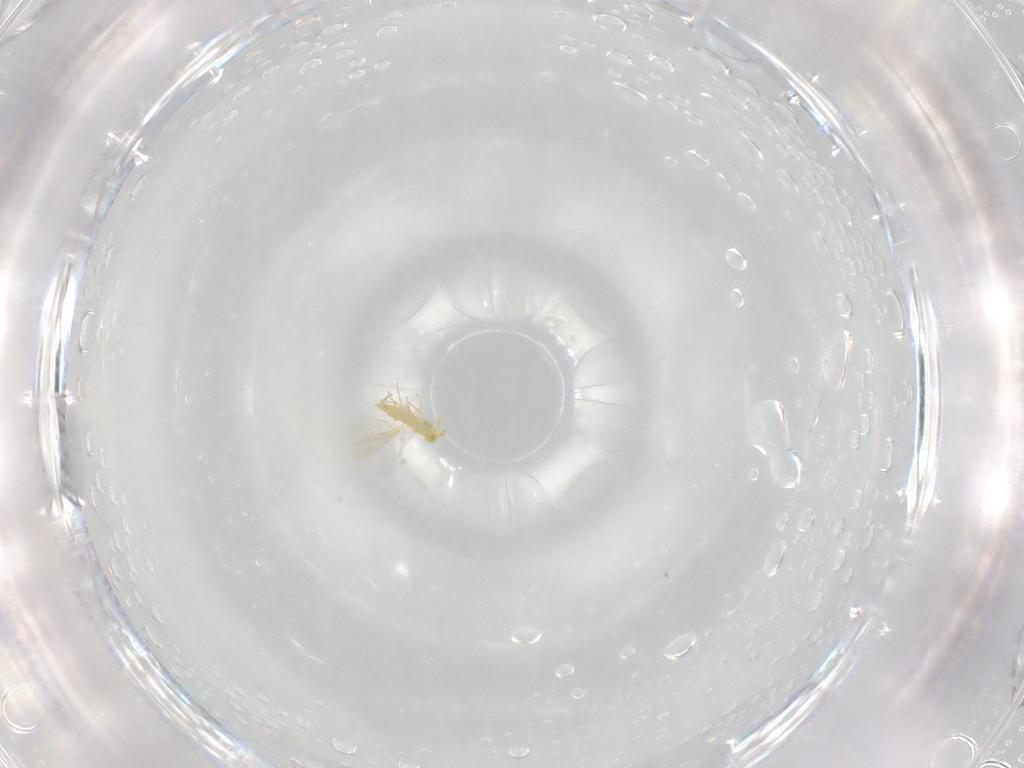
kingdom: Animalia
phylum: Arthropoda
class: Insecta
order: Hymenoptera
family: Aphelinidae
